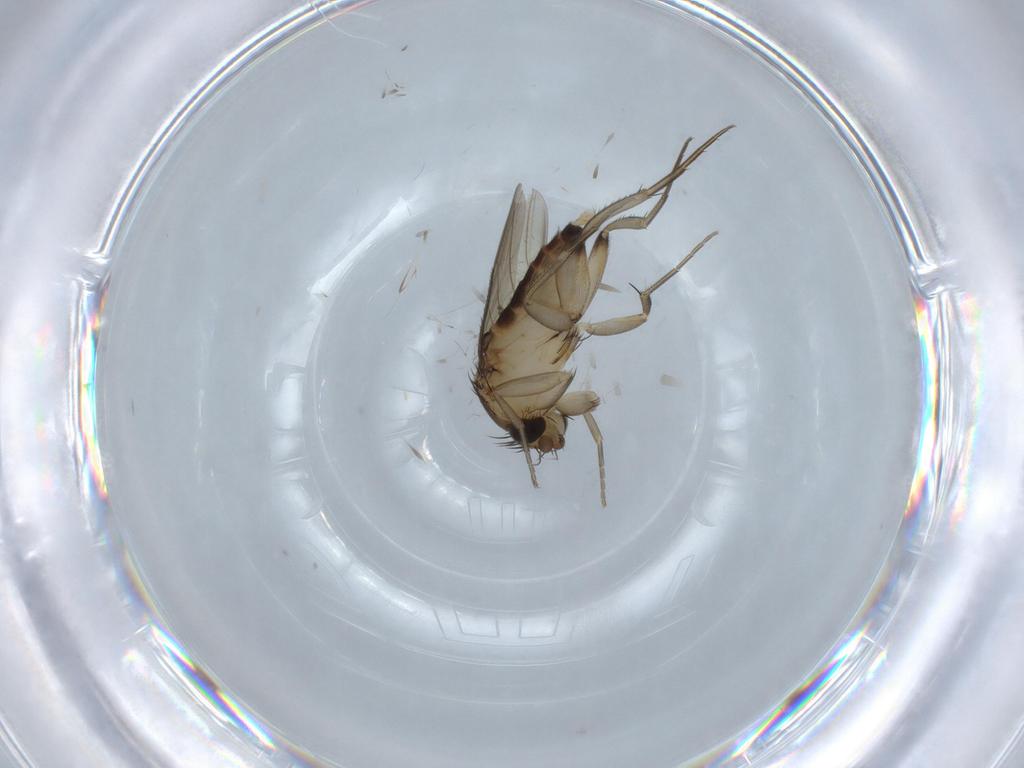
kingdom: Animalia
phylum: Arthropoda
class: Insecta
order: Diptera
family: Phoridae
